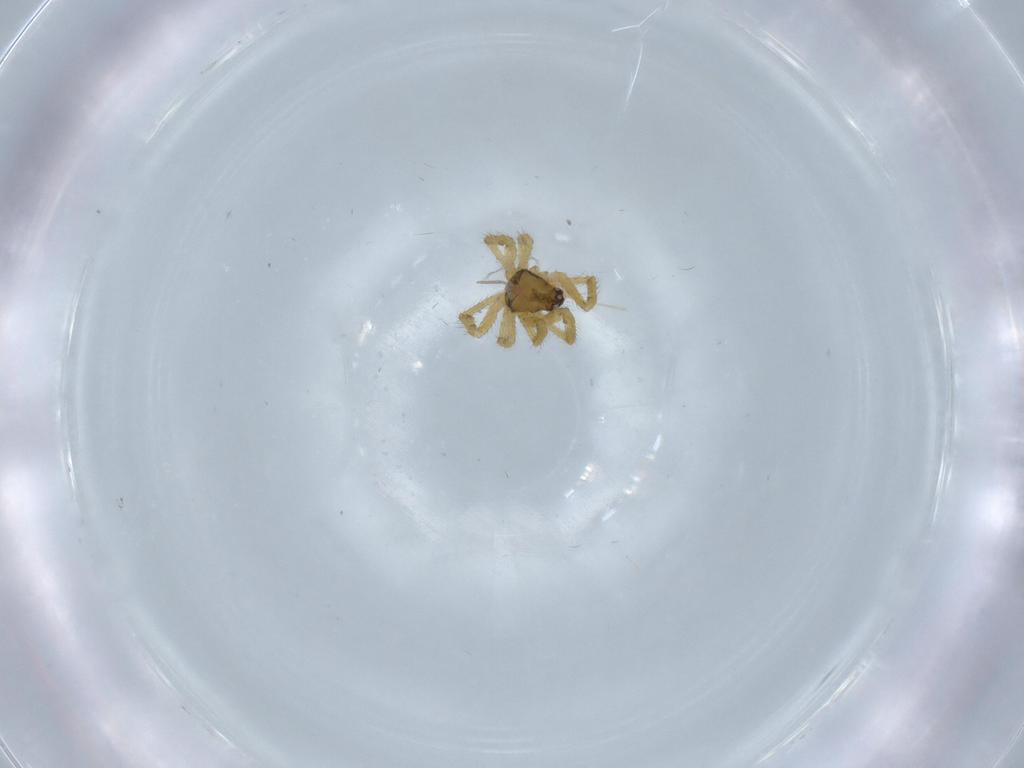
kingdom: Animalia
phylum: Arthropoda
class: Arachnida
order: Araneae
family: Theridiidae
